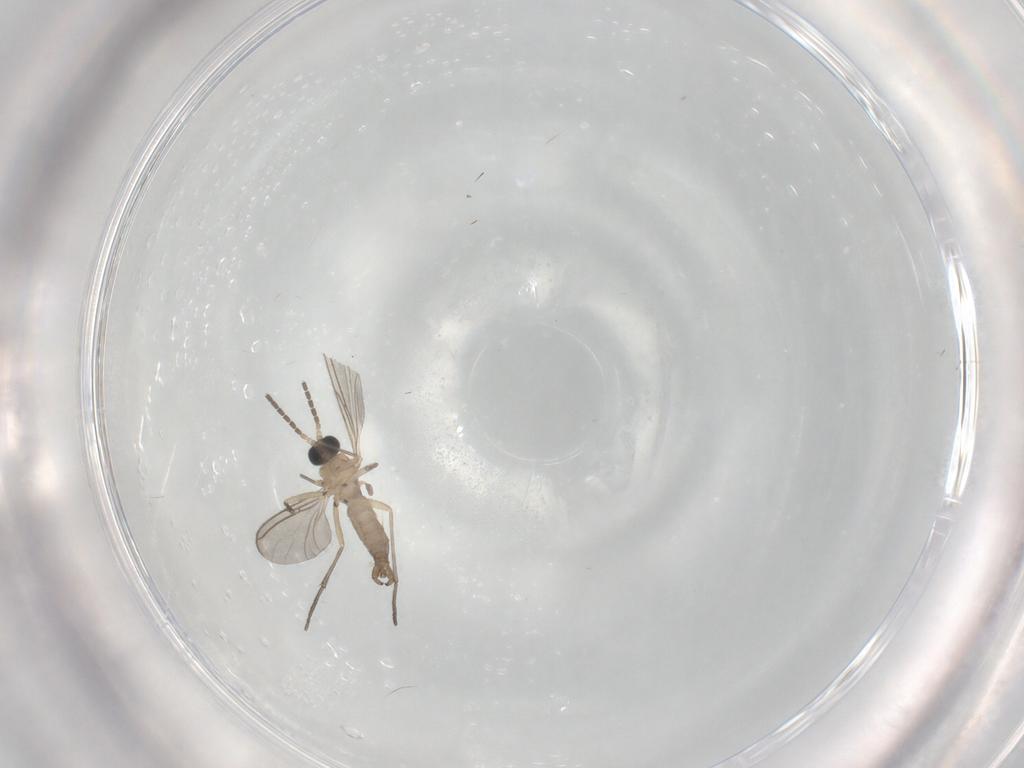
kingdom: Animalia
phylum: Arthropoda
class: Insecta
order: Diptera
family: Sciaridae
